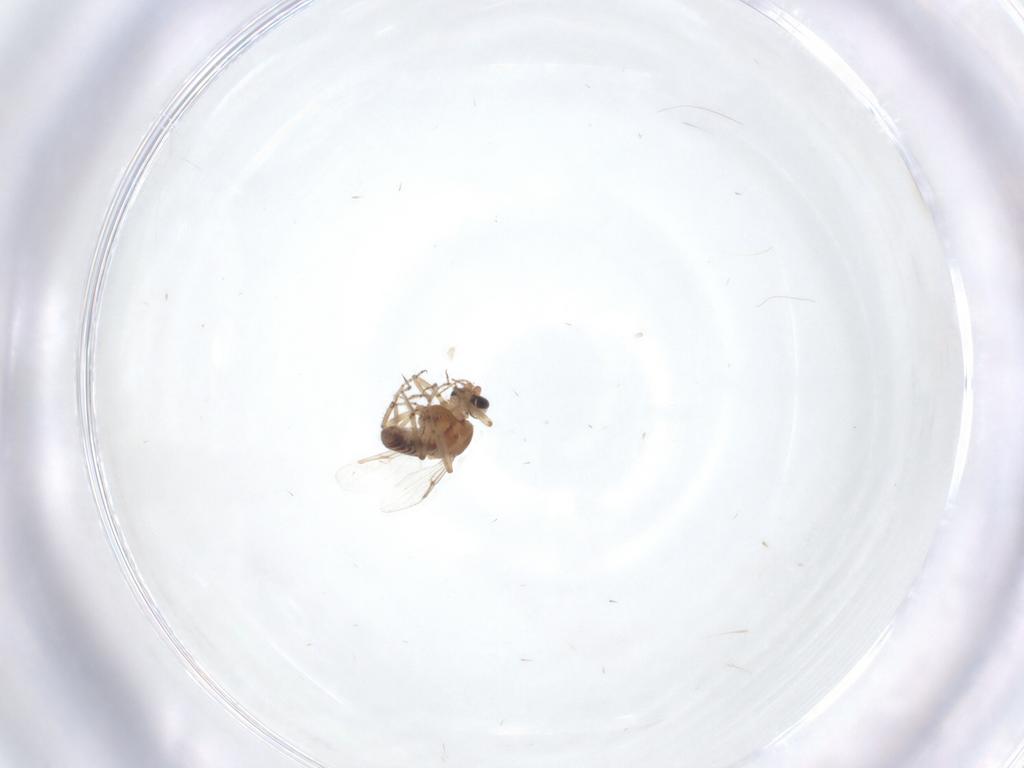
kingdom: Animalia
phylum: Arthropoda
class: Insecta
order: Diptera
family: Ceratopogonidae
